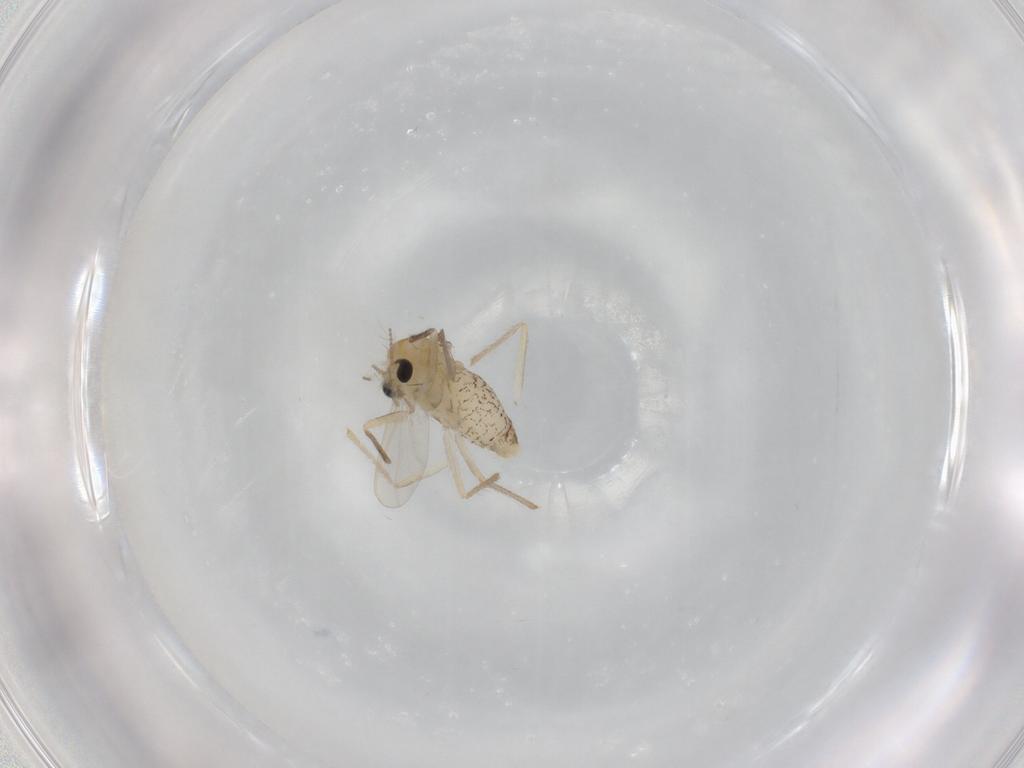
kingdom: Animalia
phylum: Arthropoda
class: Insecta
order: Diptera
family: Chironomidae
